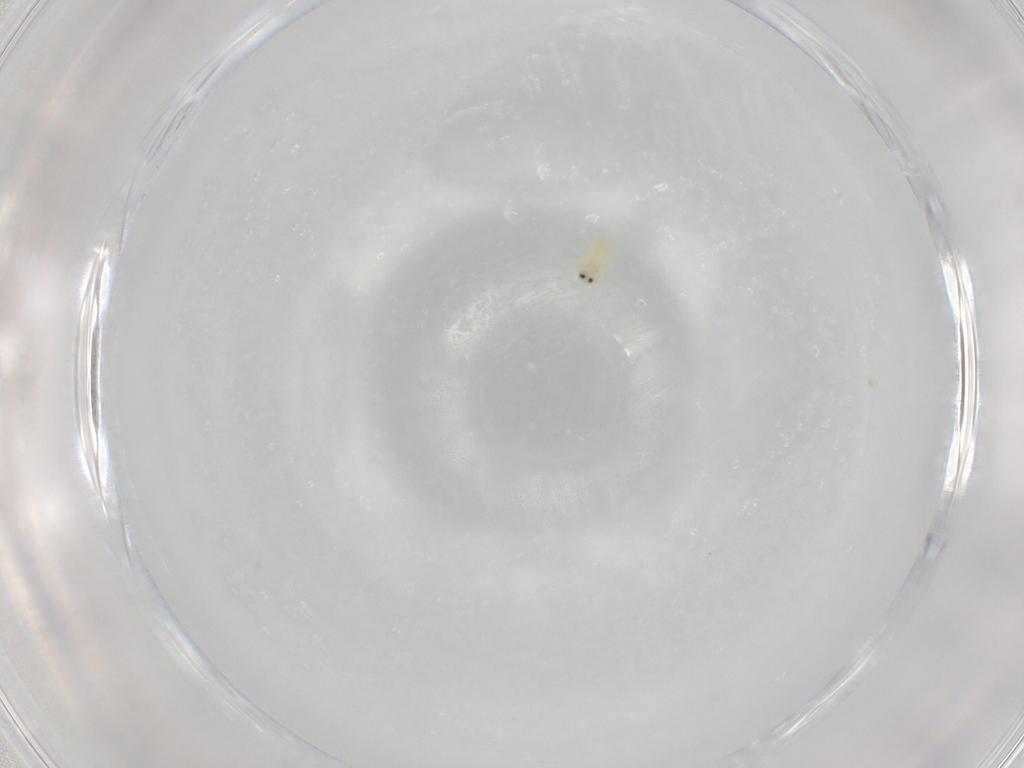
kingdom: Animalia
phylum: Arthropoda
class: Insecta
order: Hemiptera
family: Aleyrodidae
